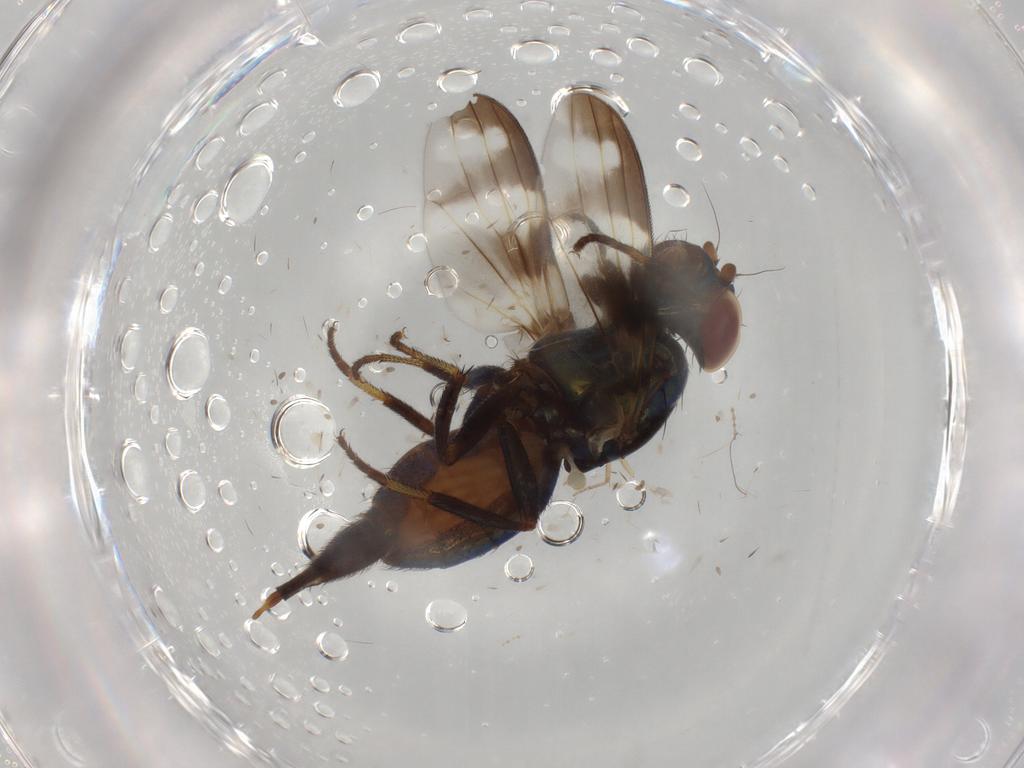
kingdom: Animalia
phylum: Arthropoda
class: Insecta
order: Diptera
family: Ulidiidae
